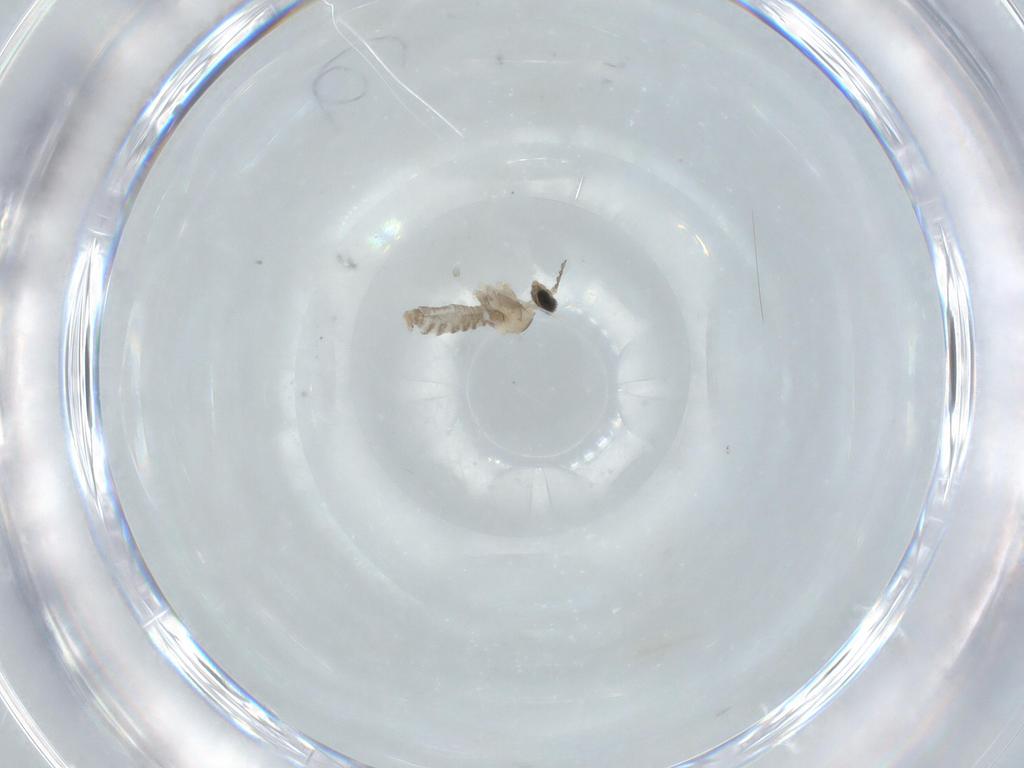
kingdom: Animalia
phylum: Arthropoda
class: Insecta
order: Diptera
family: Cecidomyiidae
